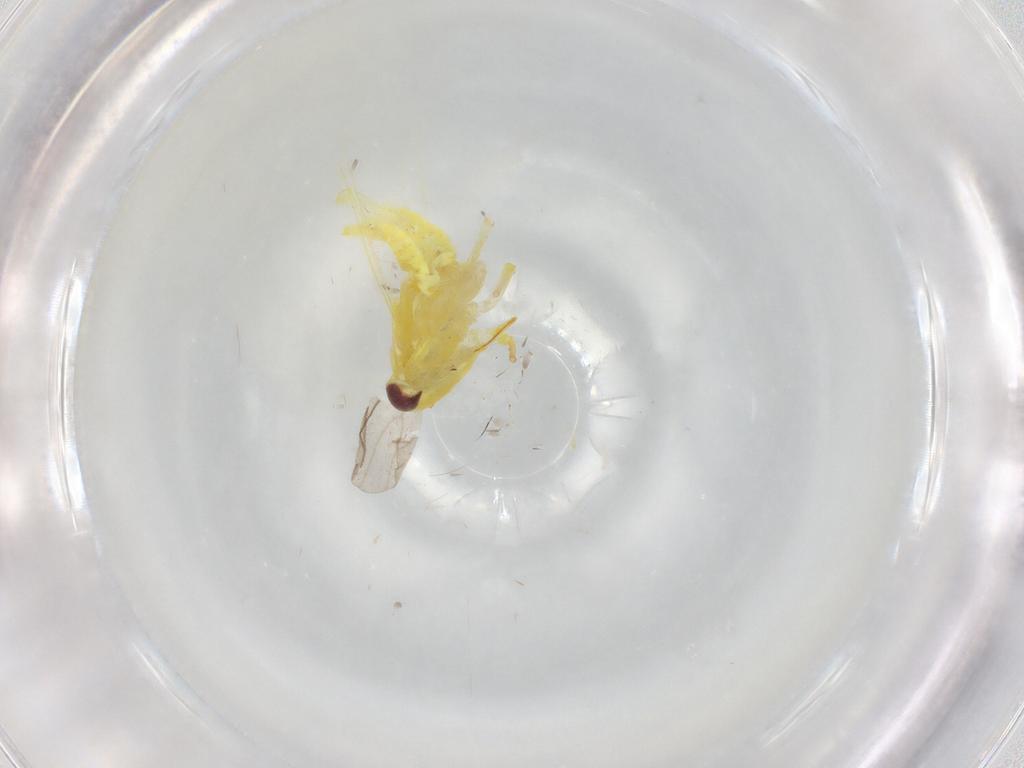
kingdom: Animalia
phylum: Arthropoda
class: Insecta
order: Hemiptera
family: Cicadellidae
